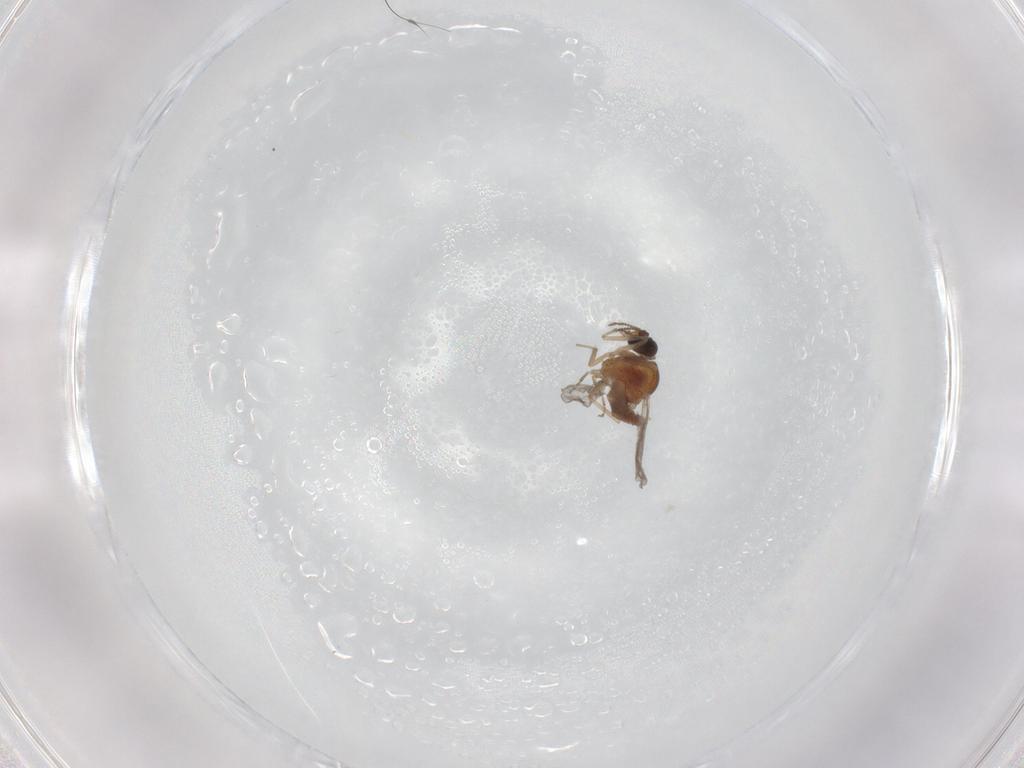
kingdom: Animalia
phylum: Arthropoda
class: Insecta
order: Diptera
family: Ceratopogonidae
